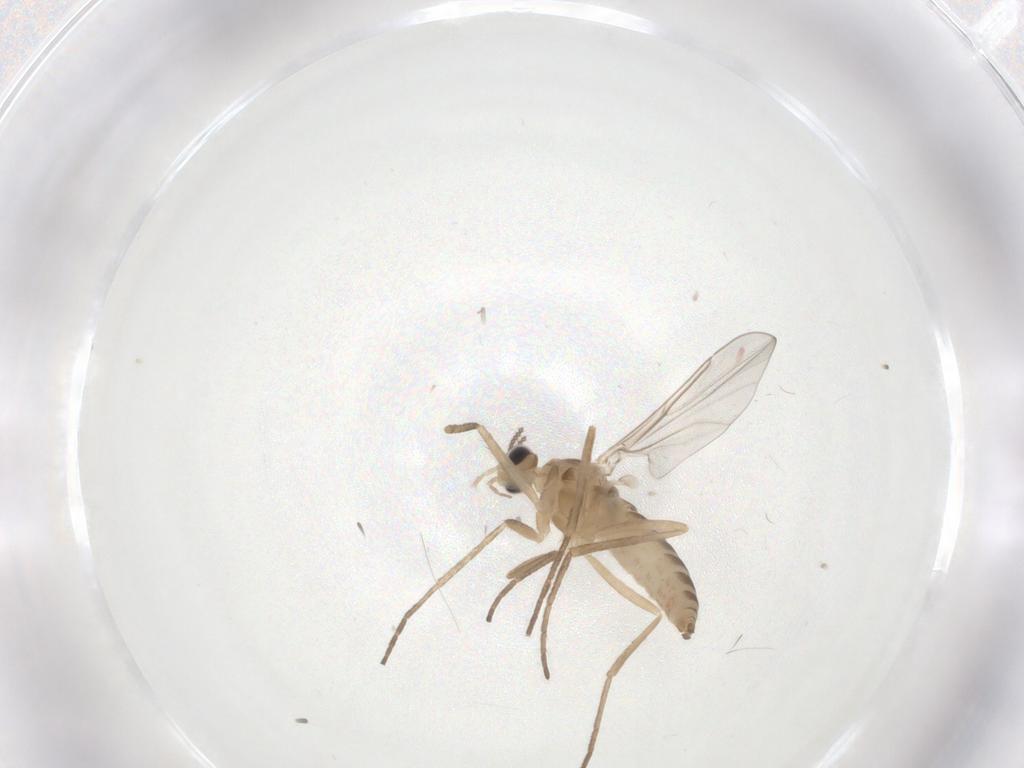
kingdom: Animalia
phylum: Arthropoda
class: Insecta
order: Diptera
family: Cecidomyiidae
